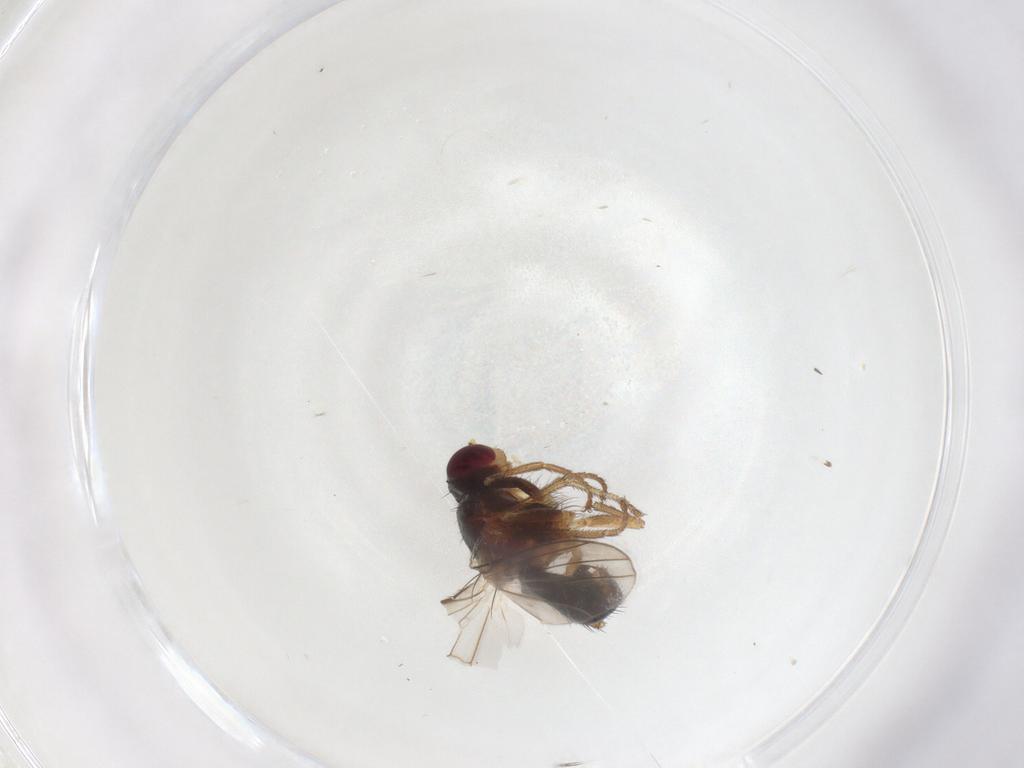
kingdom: Animalia
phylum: Arthropoda
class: Insecta
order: Diptera
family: Heleomyzidae
